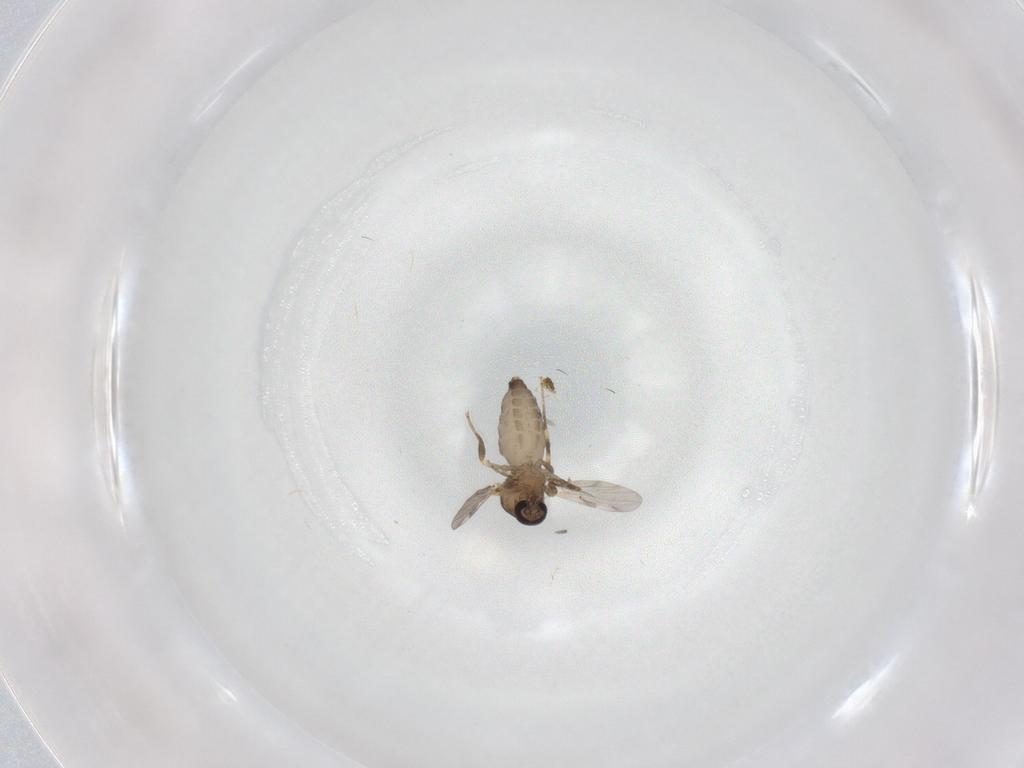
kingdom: Animalia
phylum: Arthropoda
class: Insecta
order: Diptera
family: Ceratopogonidae
